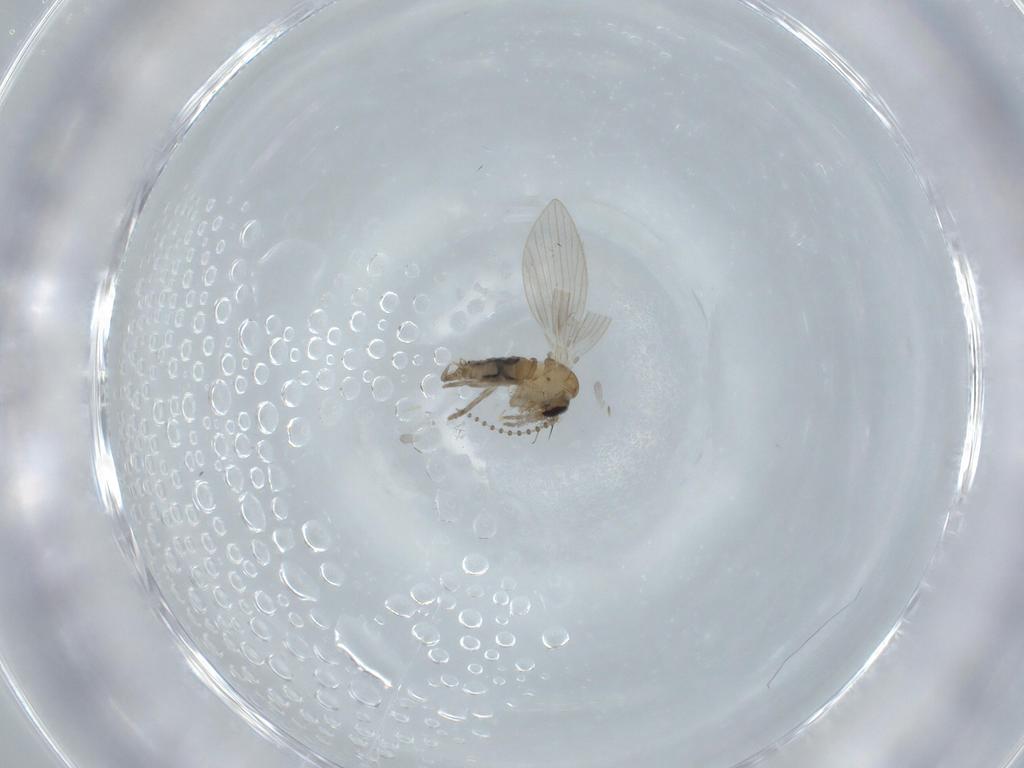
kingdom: Animalia
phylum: Arthropoda
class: Insecta
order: Diptera
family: Psychodidae
